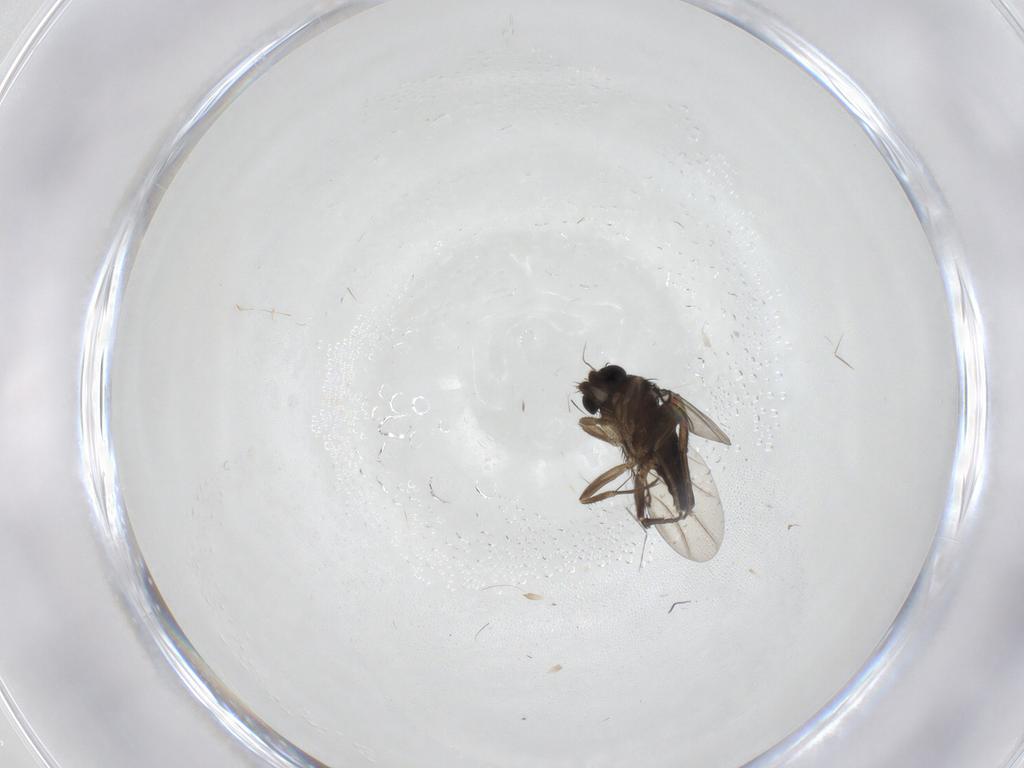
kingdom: Animalia
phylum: Arthropoda
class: Insecta
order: Diptera
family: Phoridae
